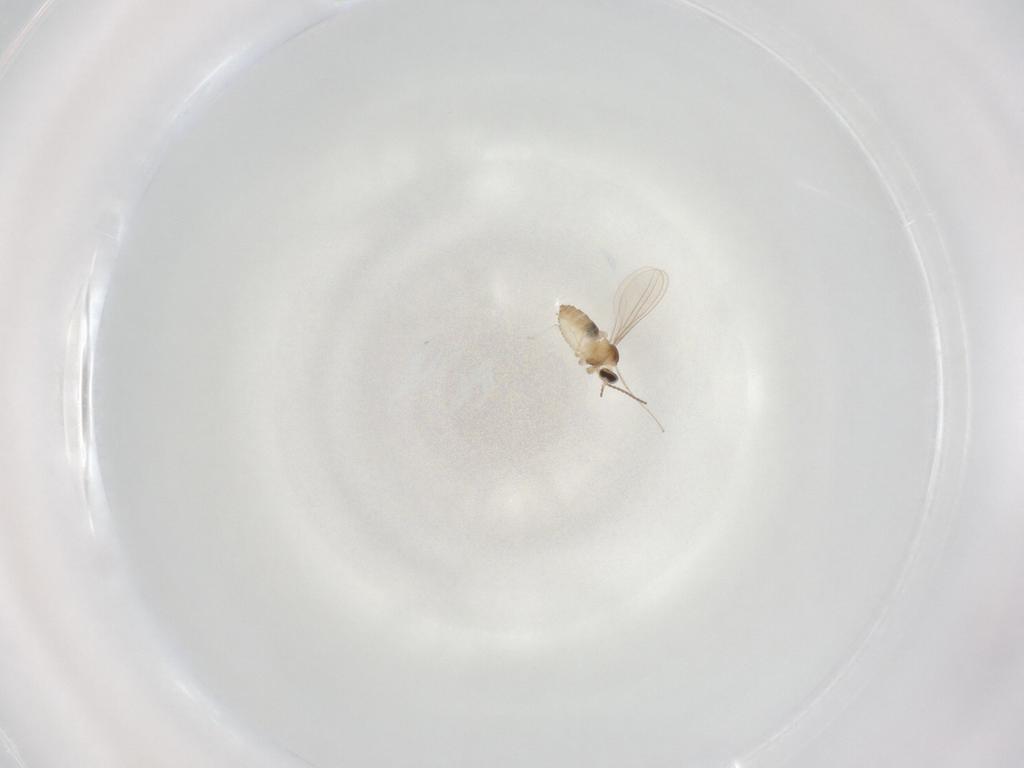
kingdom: Animalia
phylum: Arthropoda
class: Insecta
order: Diptera
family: Cecidomyiidae
